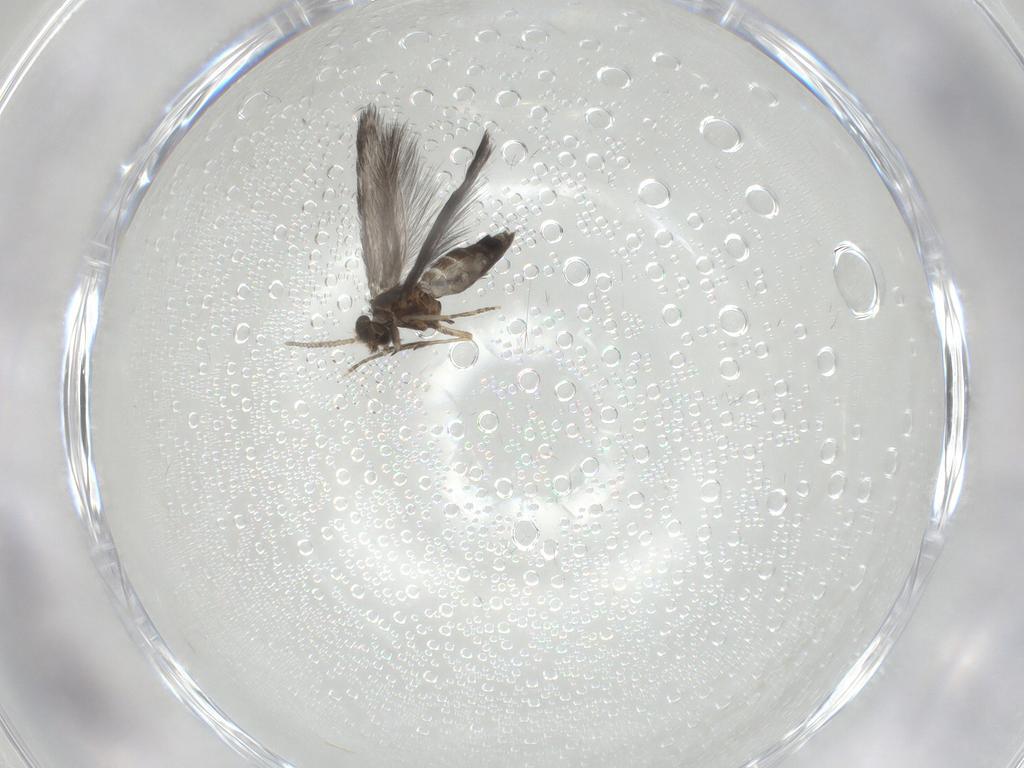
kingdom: Animalia
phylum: Arthropoda
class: Insecta
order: Trichoptera
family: Hydroptilidae
